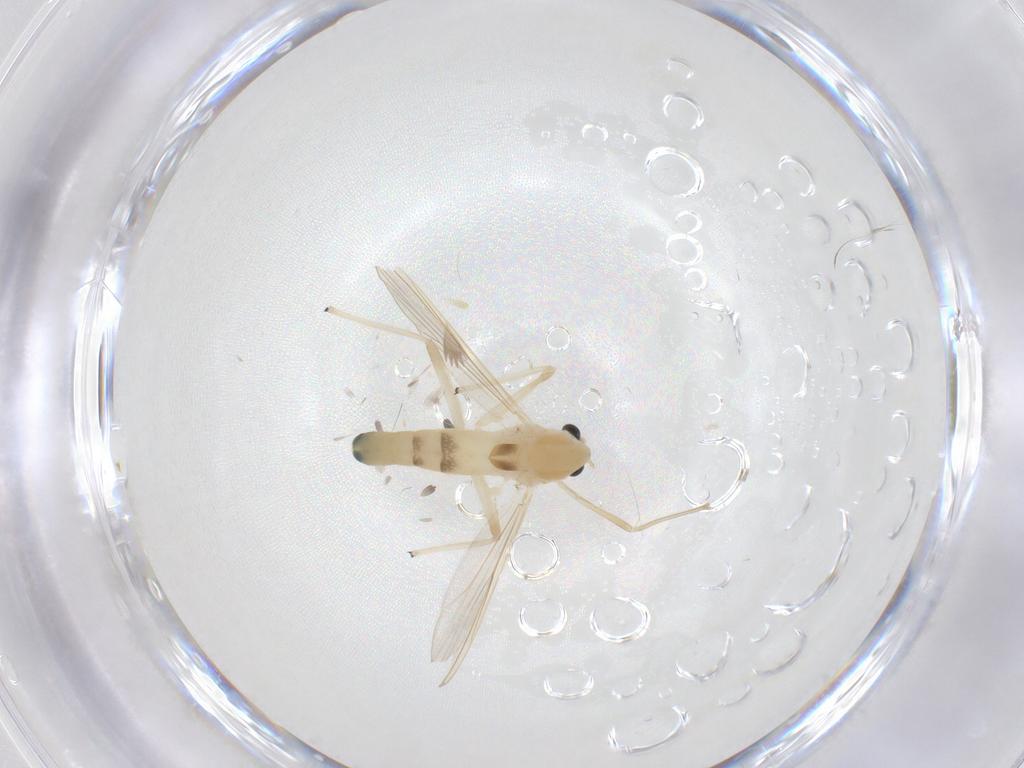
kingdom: Animalia
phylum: Arthropoda
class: Insecta
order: Diptera
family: Chironomidae
